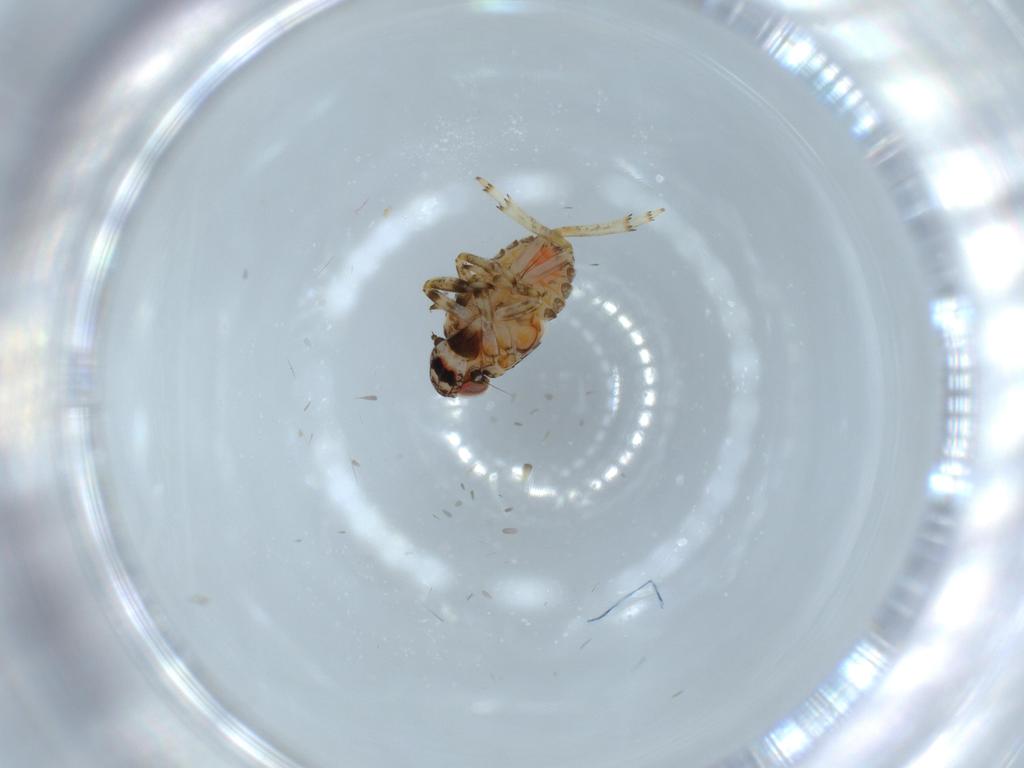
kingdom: Animalia
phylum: Arthropoda
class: Insecta
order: Hemiptera
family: Issidae
